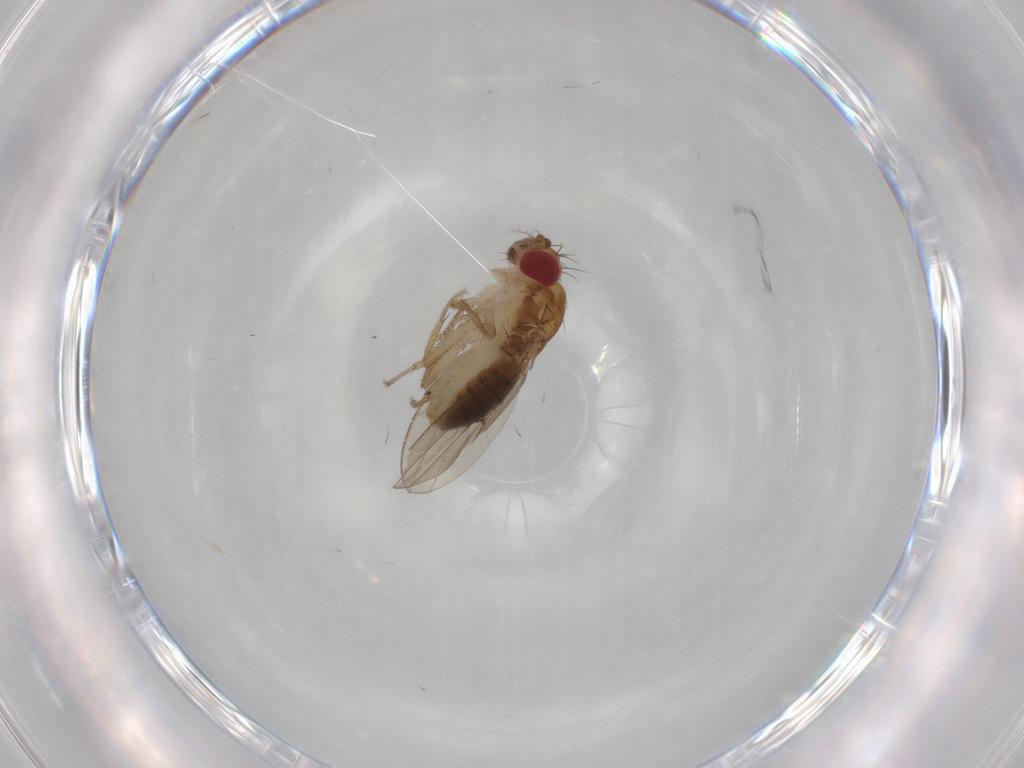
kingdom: Animalia
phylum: Arthropoda
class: Insecta
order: Diptera
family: Drosophilidae
